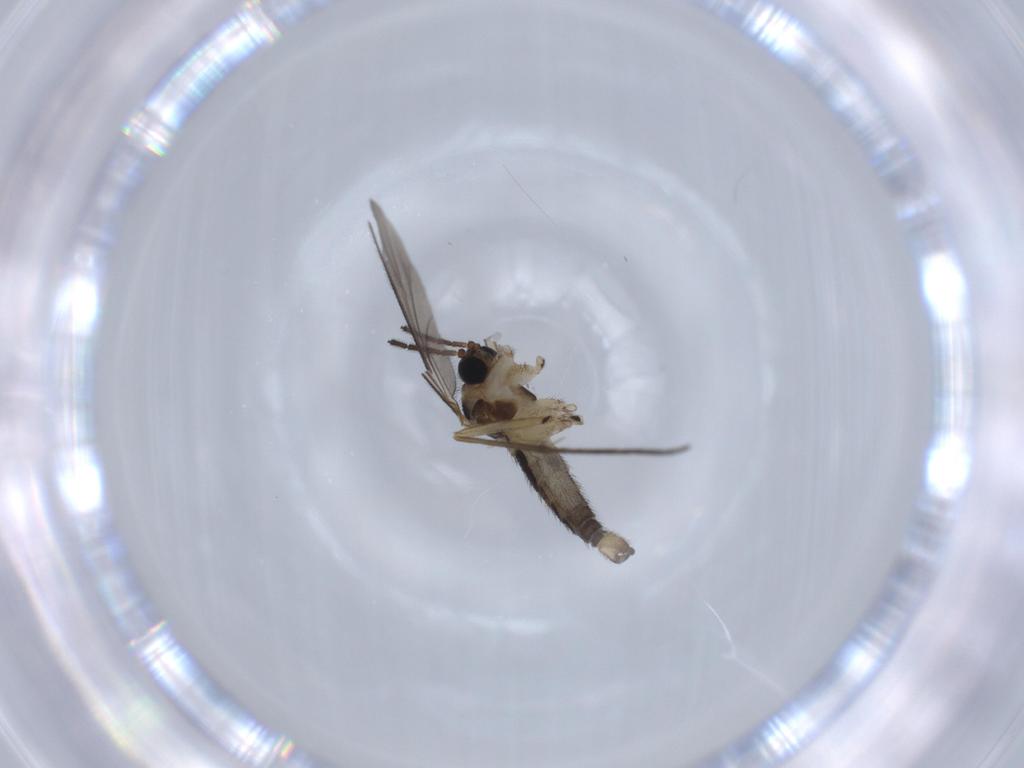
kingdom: Animalia
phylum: Arthropoda
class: Insecta
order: Diptera
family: Sciaridae
